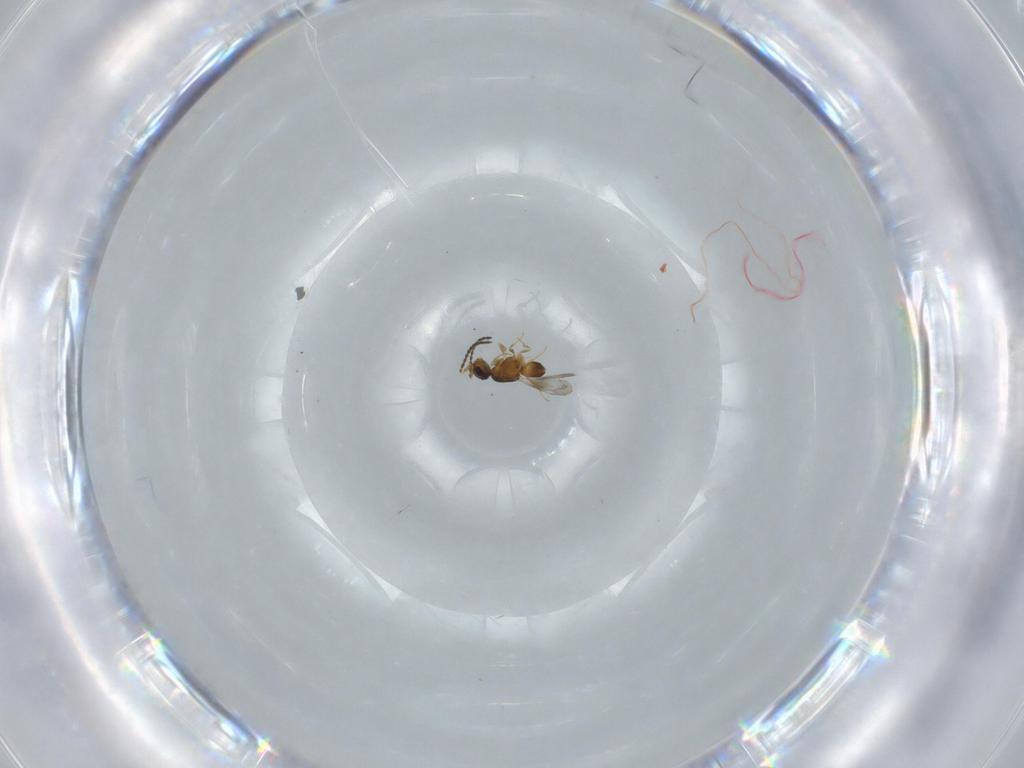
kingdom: Animalia
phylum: Arthropoda
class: Insecta
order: Hymenoptera
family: Ceraphronidae
